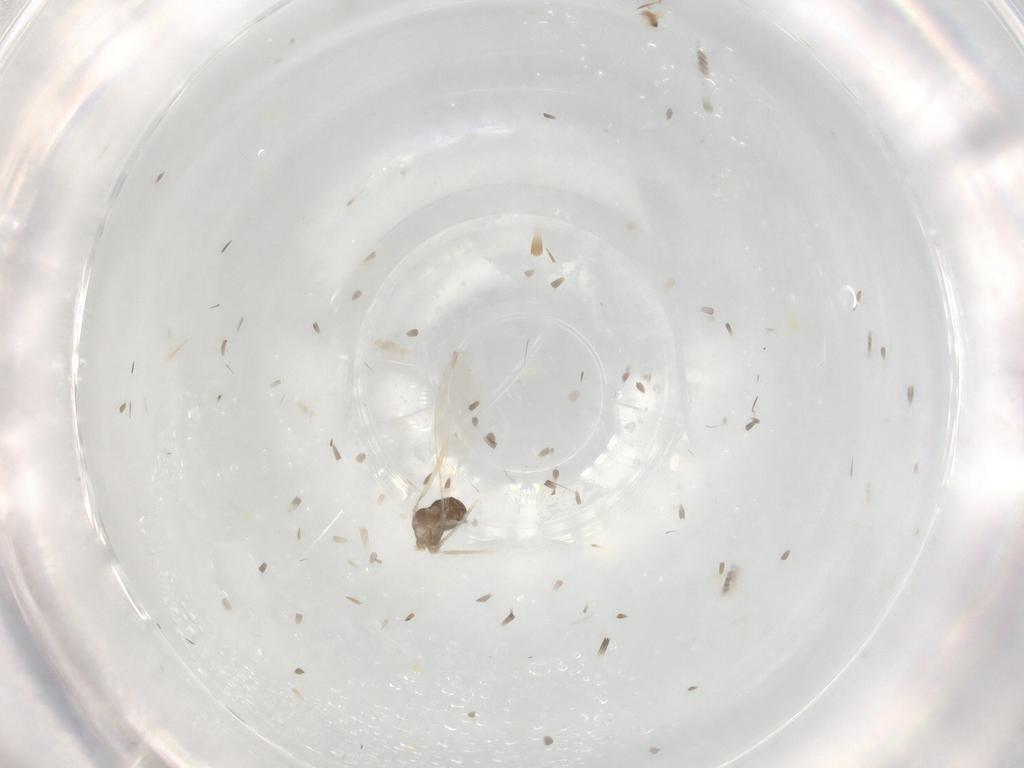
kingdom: Animalia
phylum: Arthropoda
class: Insecta
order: Diptera
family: Cecidomyiidae
